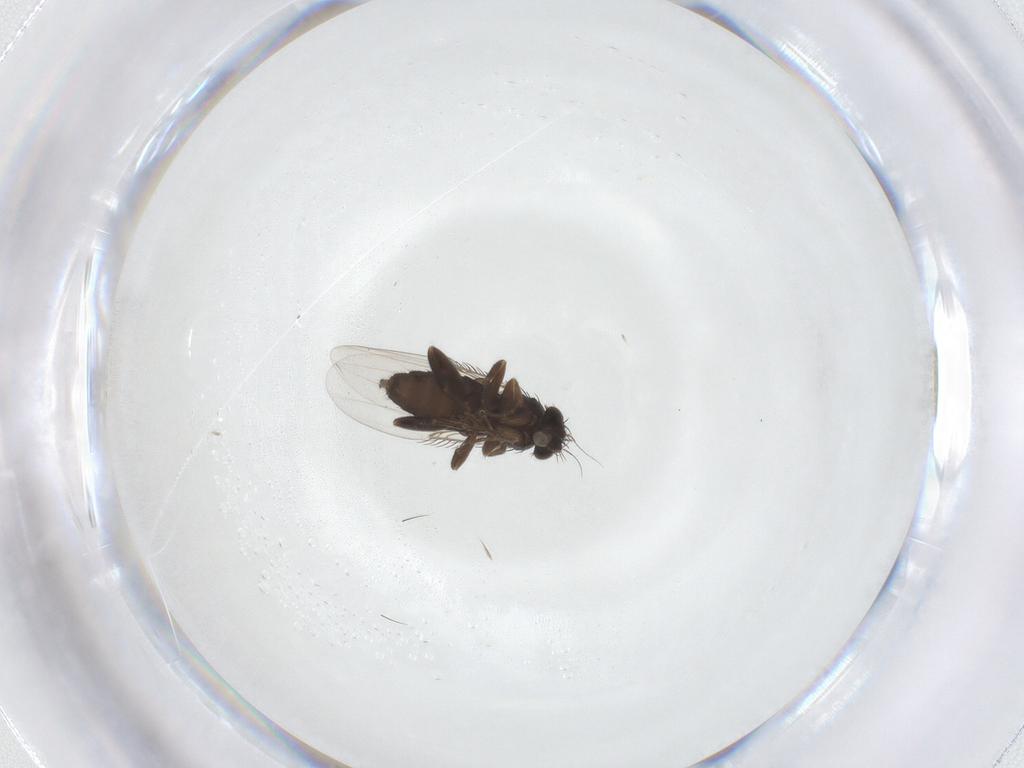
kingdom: Animalia
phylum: Arthropoda
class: Insecta
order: Diptera
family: Phoridae
